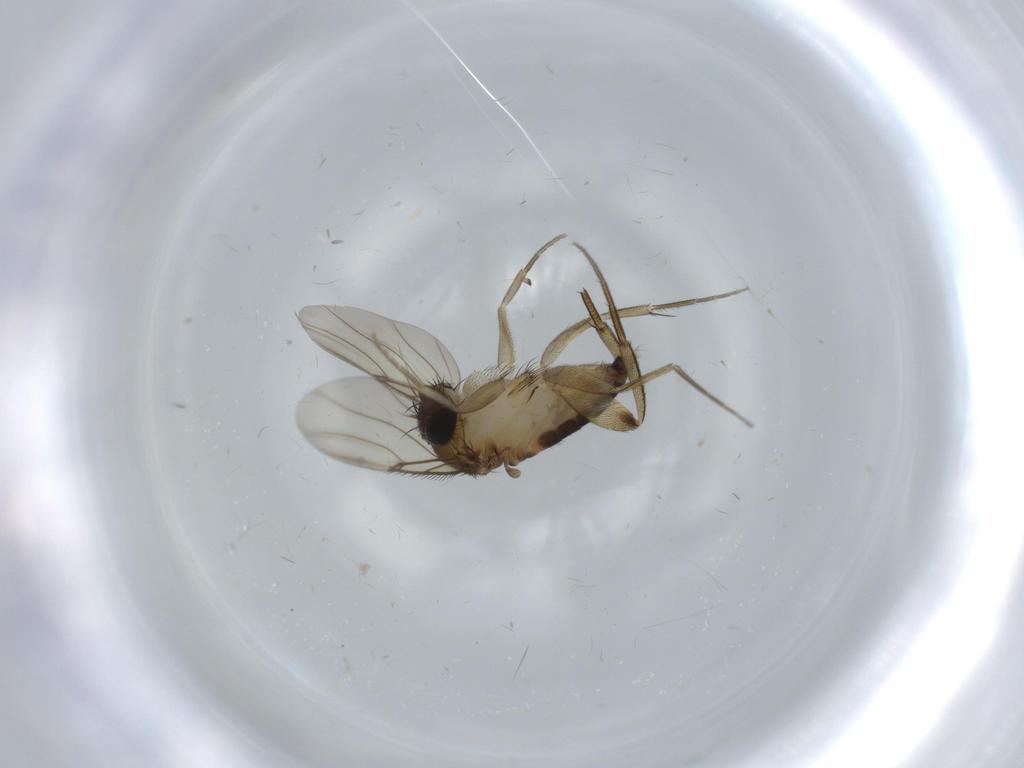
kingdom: Animalia
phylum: Arthropoda
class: Insecta
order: Diptera
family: Phoridae
